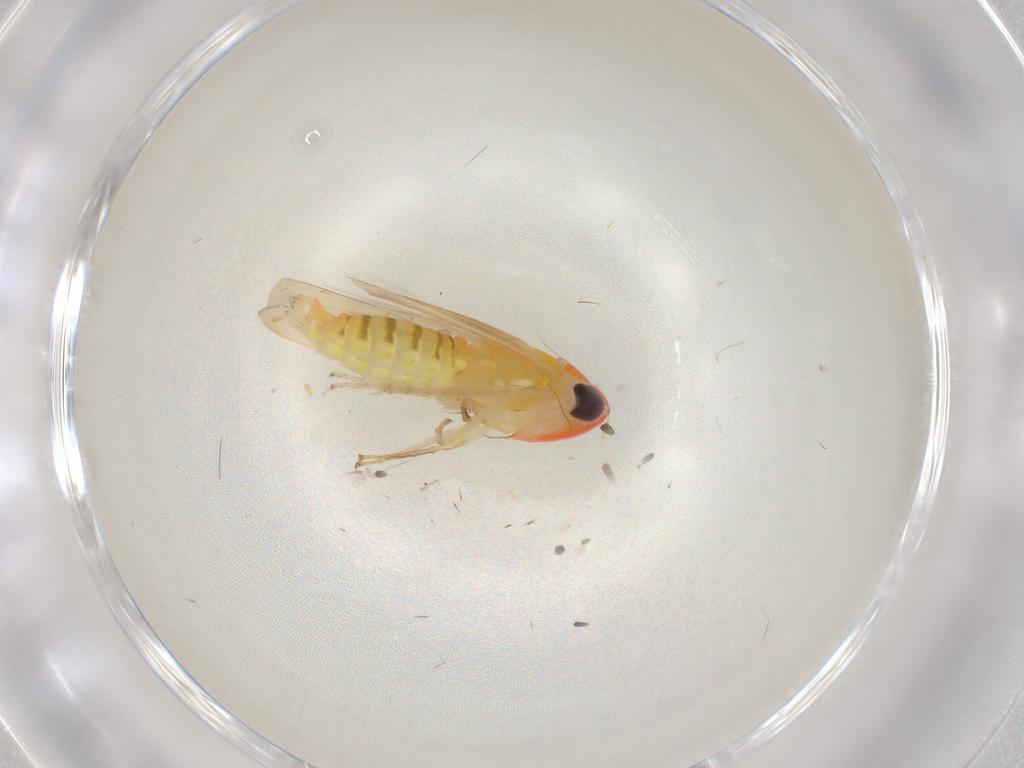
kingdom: Animalia
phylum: Arthropoda
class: Insecta
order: Hemiptera
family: Cicadellidae
